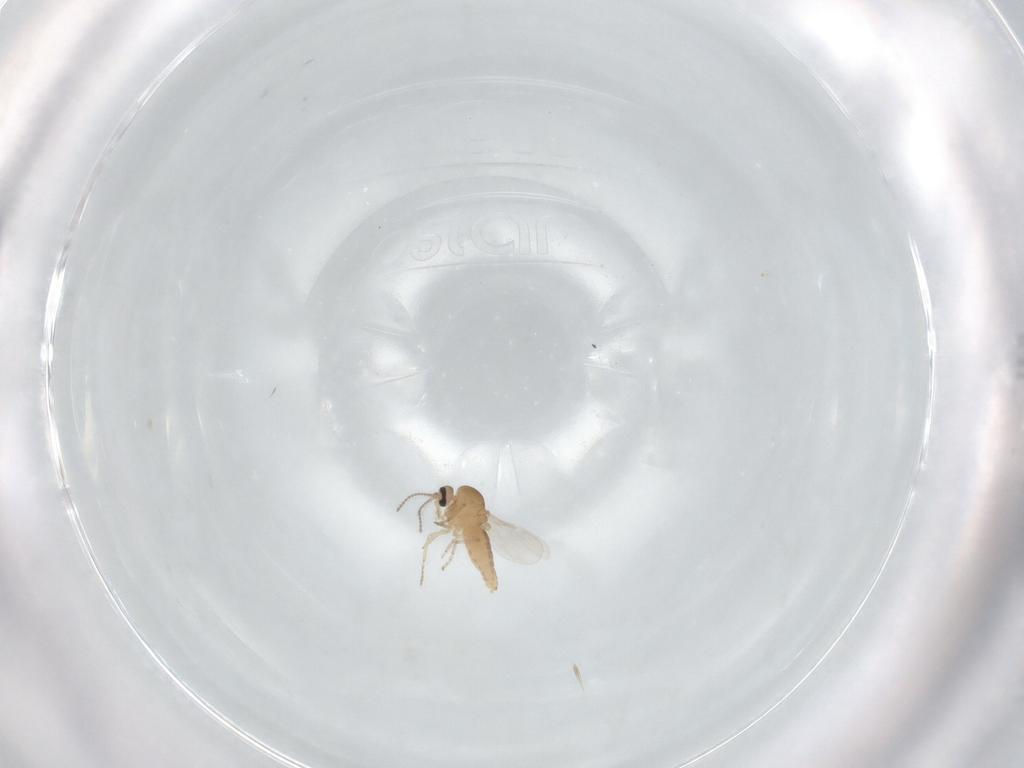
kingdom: Animalia
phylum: Arthropoda
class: Insecta
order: Diptera
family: Ceratopogonidae
